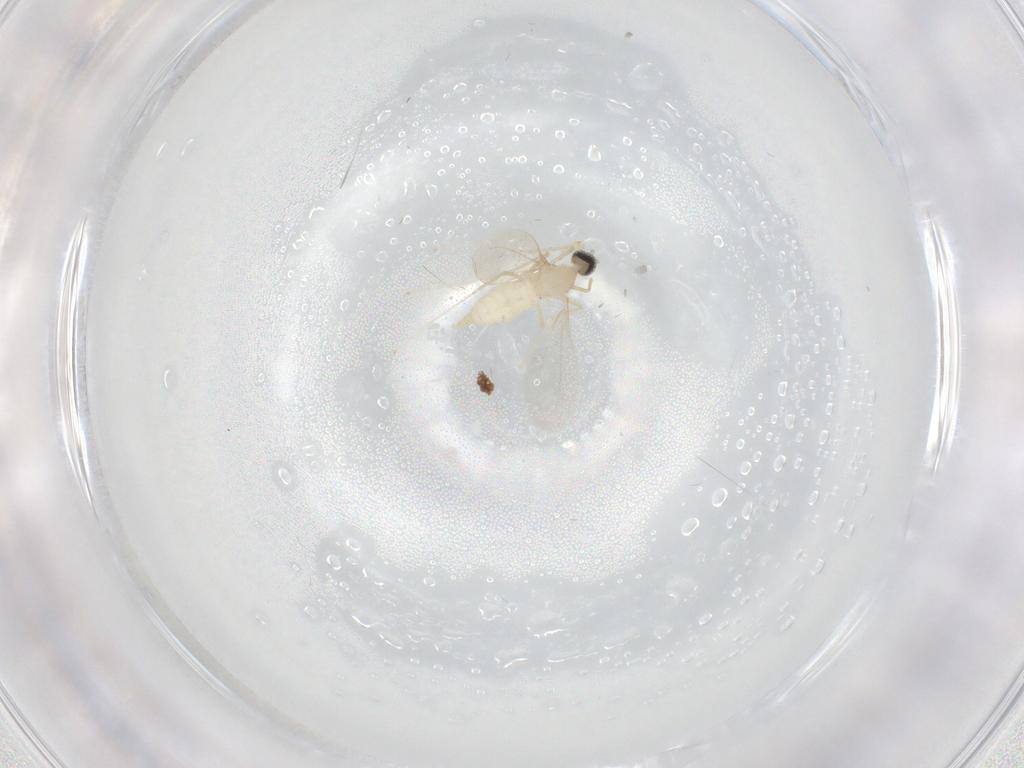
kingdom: Animalia
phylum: Arthropoda
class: Insecta
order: Diptera
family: Cecidomyiidae
